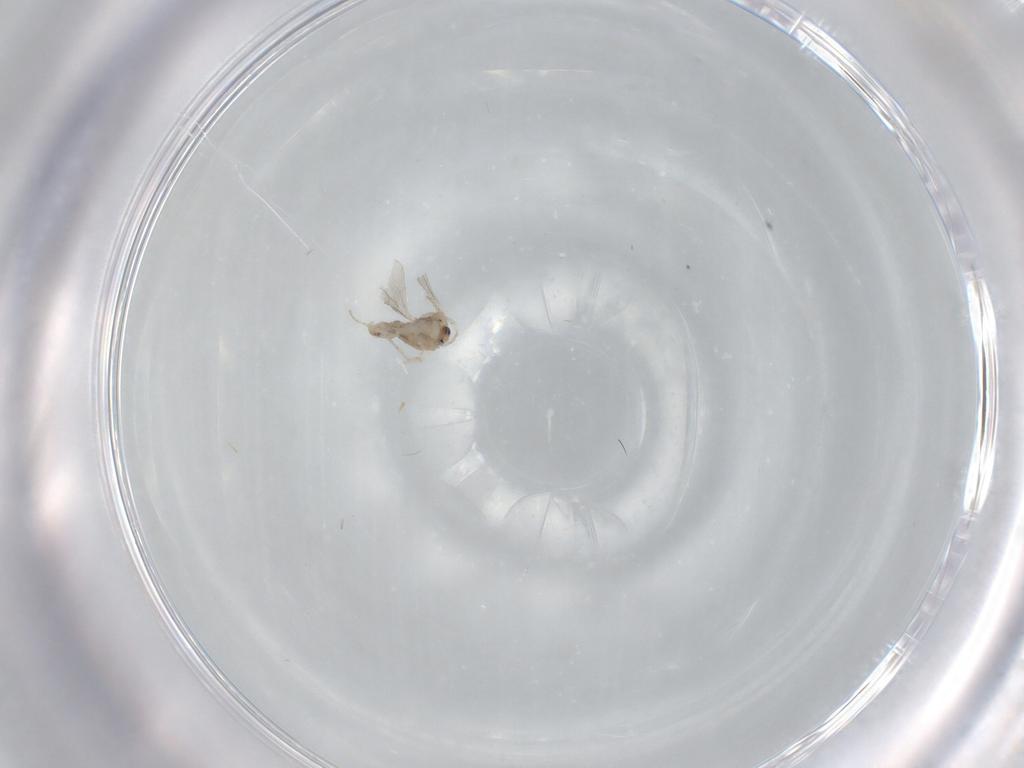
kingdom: Animalia
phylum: Arthropoda
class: Insecta
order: Diptera
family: Cecidomyiidae
